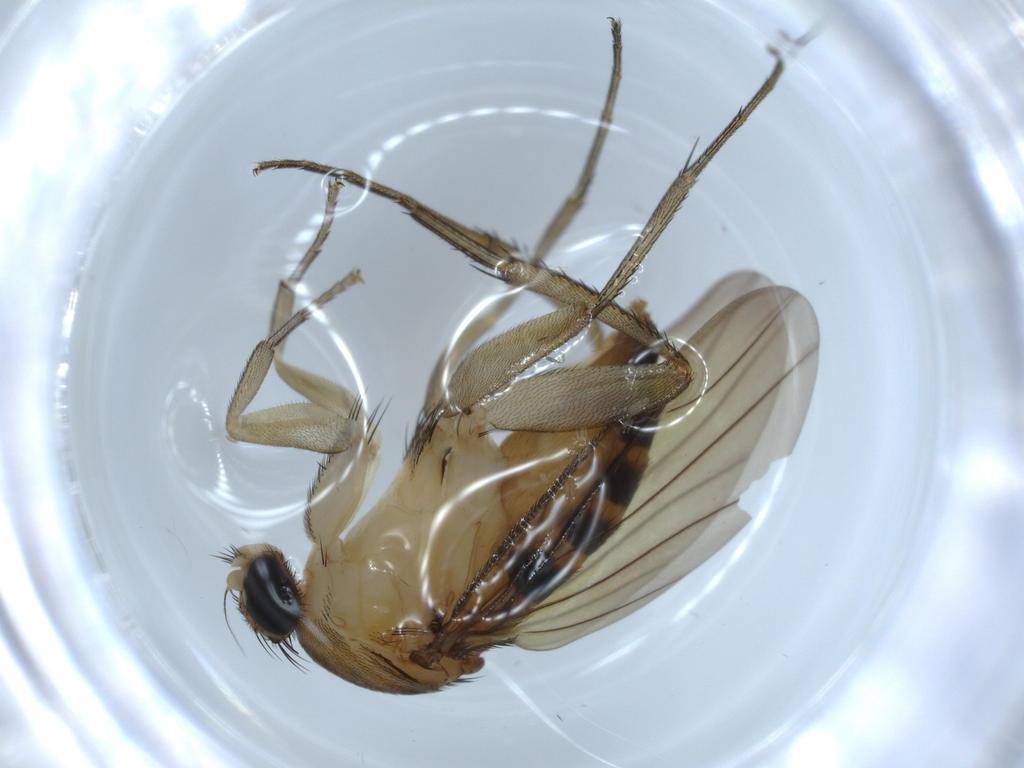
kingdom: Animalia
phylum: Arthropoda
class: Insecta
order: Diptera
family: Phoridae
